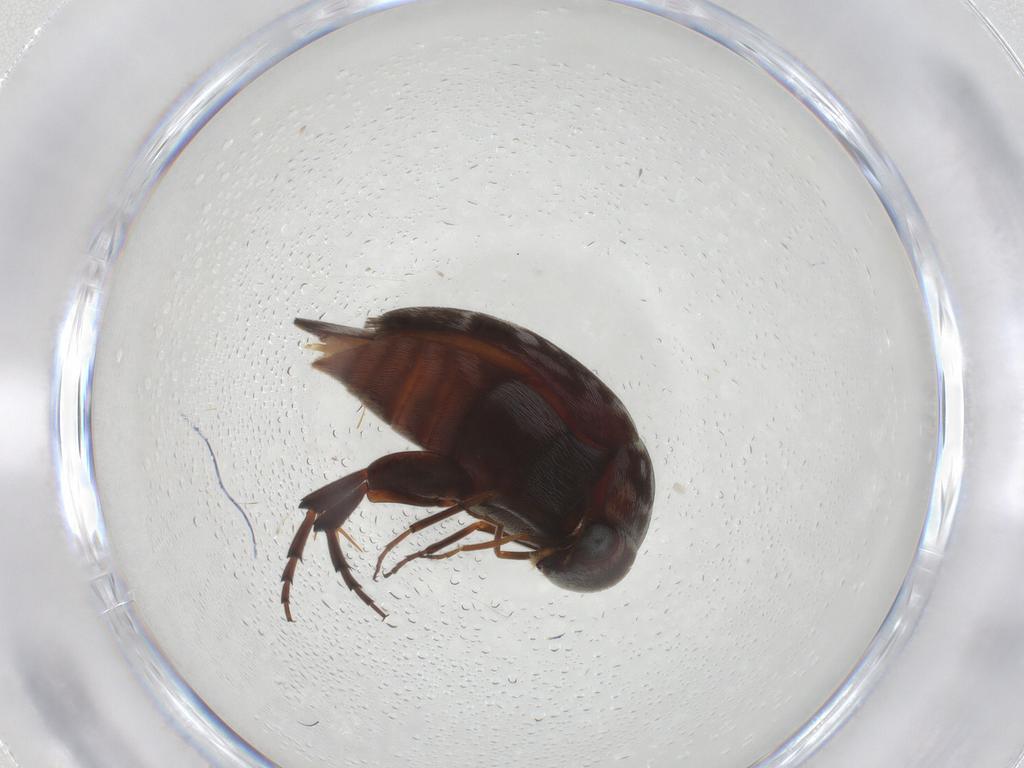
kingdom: Animalia
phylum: Arthropoda
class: Insecta
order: Coleoptera
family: Mordellidae
